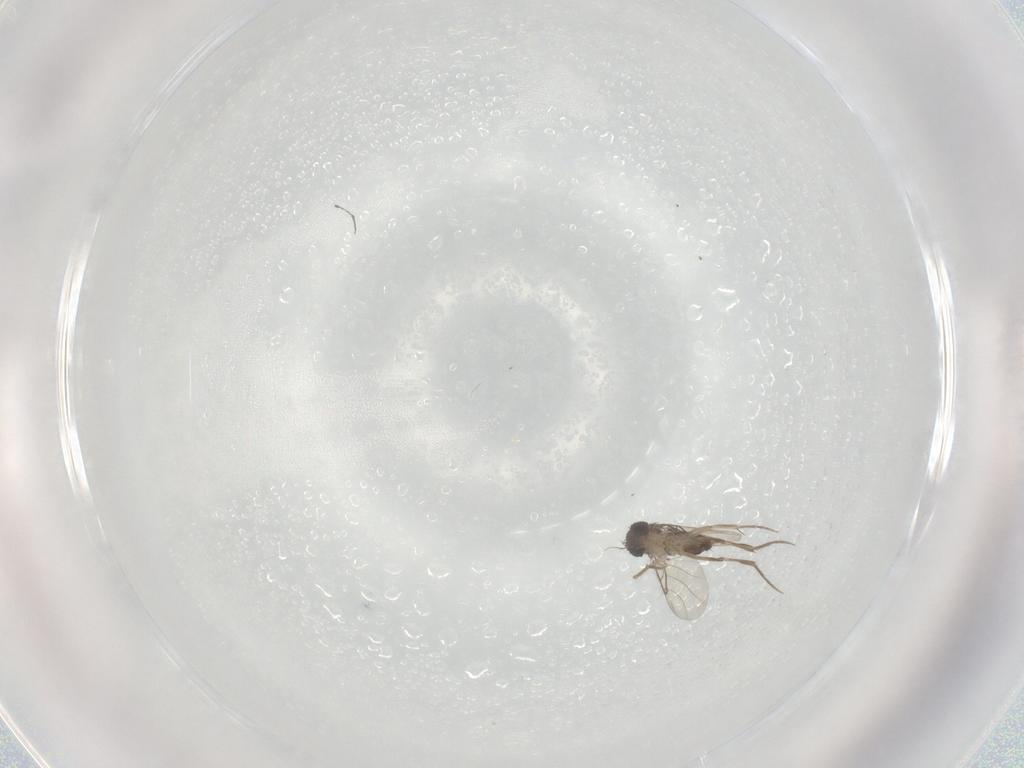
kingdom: Animalia
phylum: Arthropoda
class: Insecta
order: Diptera
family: Phoridae
